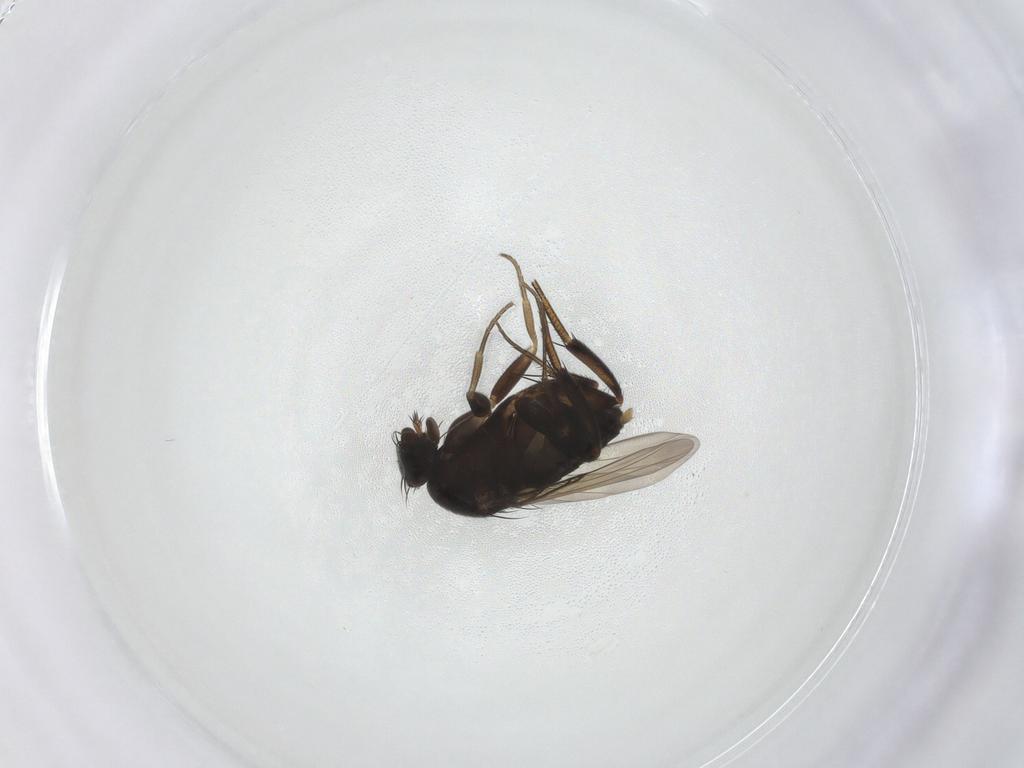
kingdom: Animalia
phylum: Arthropoda
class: Insecta
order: Diptera
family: Phoridae
